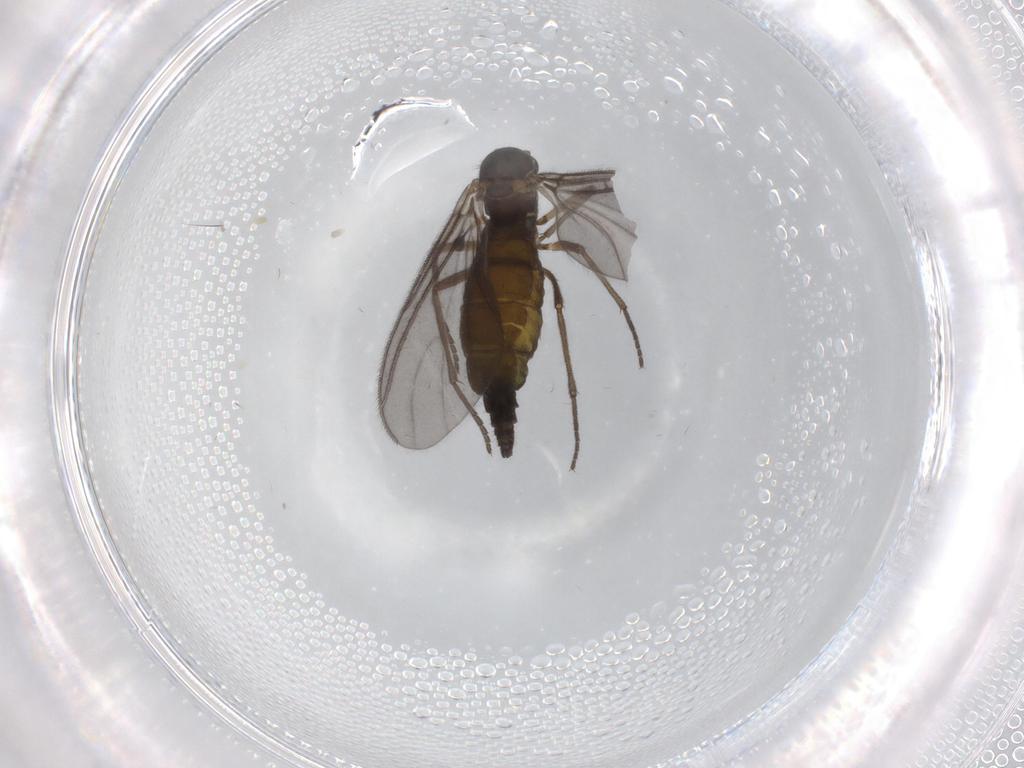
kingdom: Animalia
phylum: Arthropoda
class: Insecta
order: Diptera
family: Sciaridae
